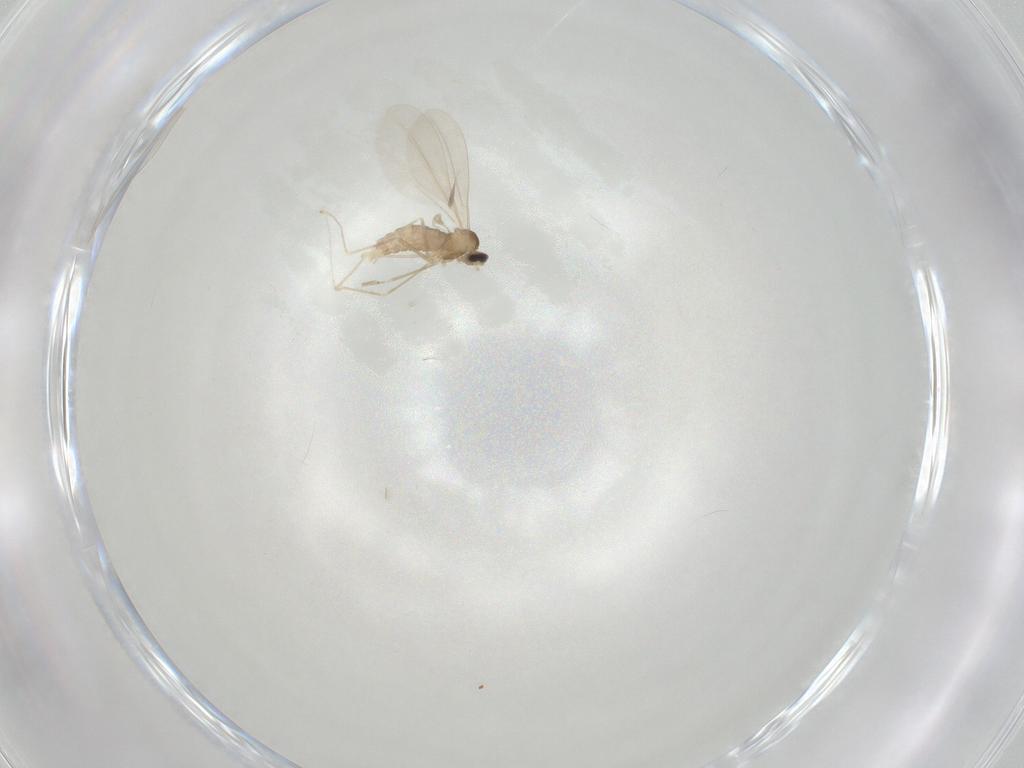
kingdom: Animalia
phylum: Arthropoda
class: Insecta
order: Diptera
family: Cecidomyiidae
